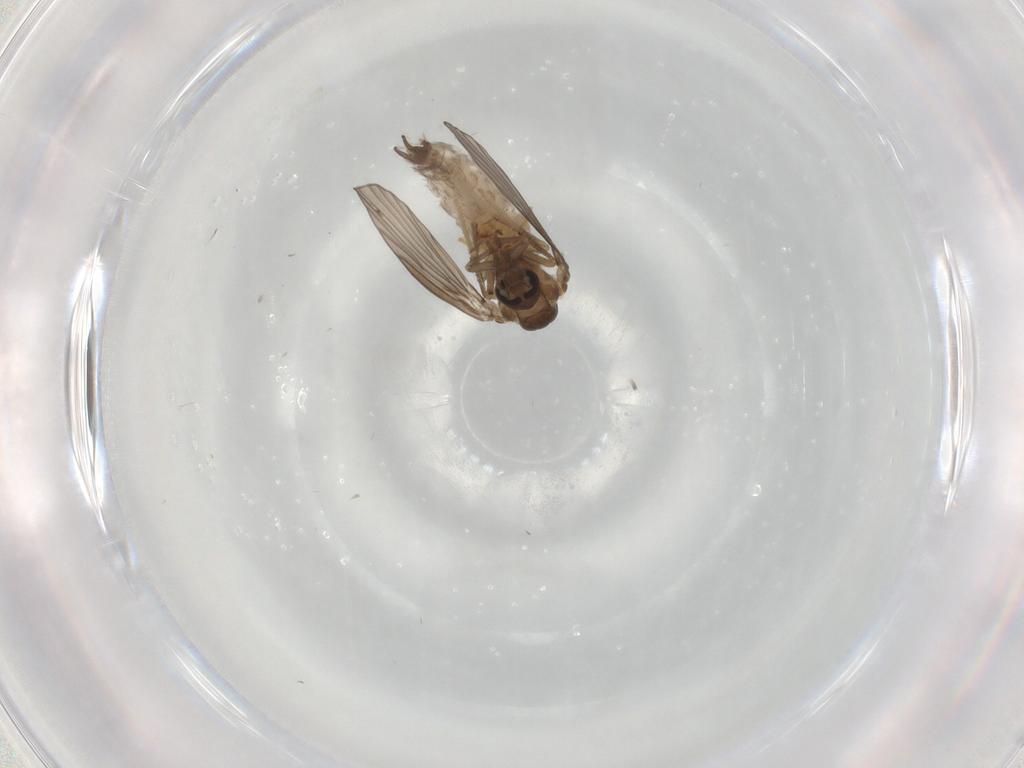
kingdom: Animalia
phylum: Arthropoda
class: Insecta
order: Diptera
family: Psychodidae
